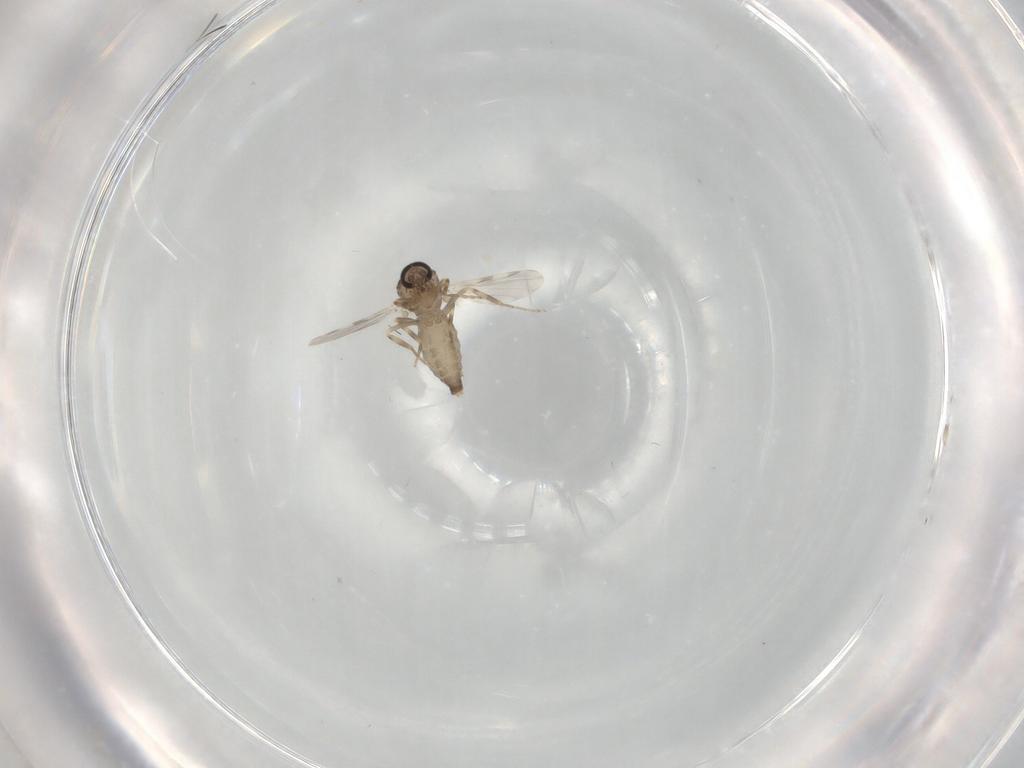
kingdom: Animalia
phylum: Arthropoda
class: Insecta
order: Diptera
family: Ceratopogonidae
